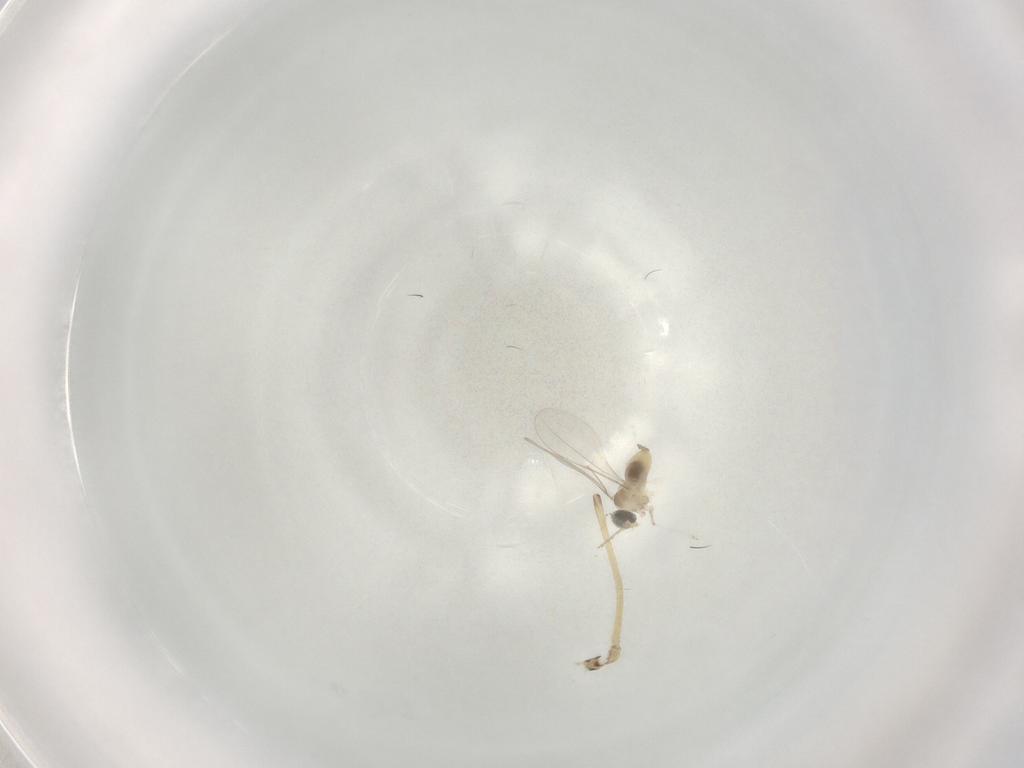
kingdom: Animalia
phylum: Arthropoda
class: Insecta
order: Diptera
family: Cecidomyiidae
